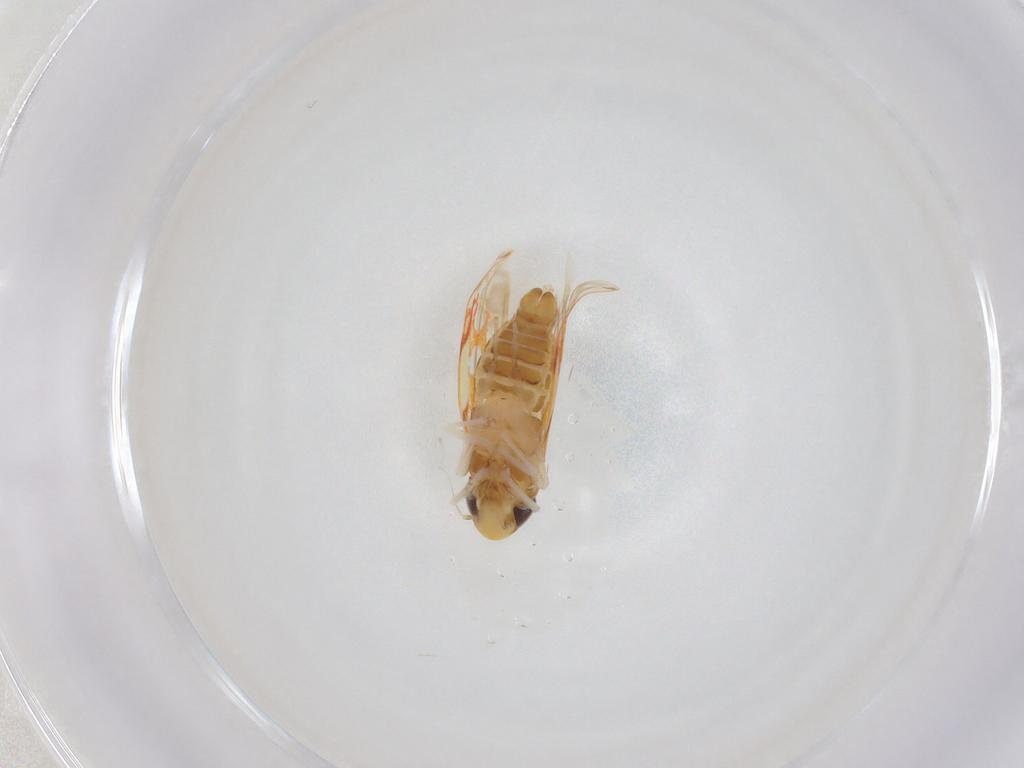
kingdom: Animalia
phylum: Arthropoda
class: Insecta
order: Hemiptera
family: Cicadellidae
